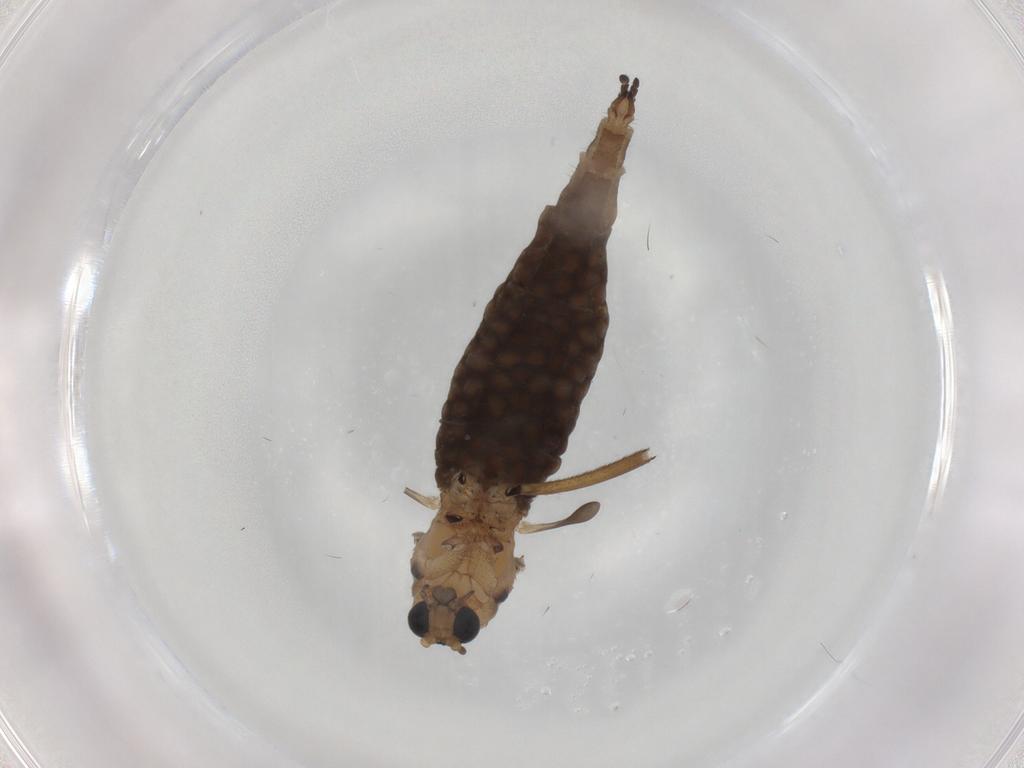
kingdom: Animalia
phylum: Arthropoda
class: Insecta
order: Diptera
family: Sciaridae
